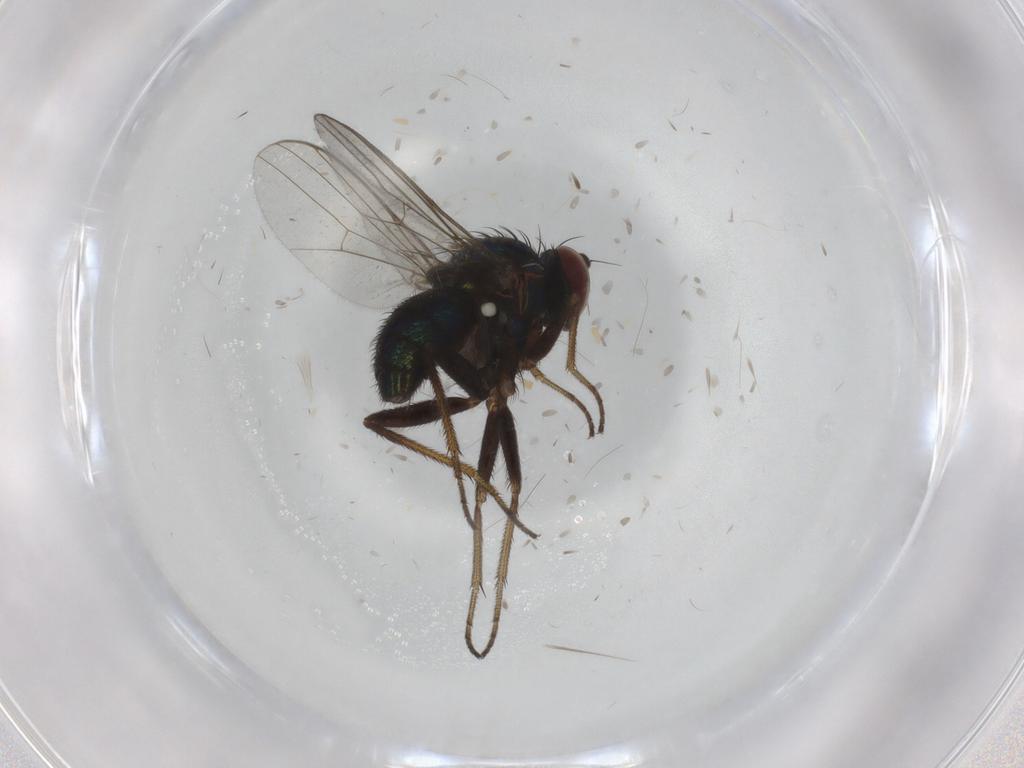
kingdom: Animalia
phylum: Arthropoda
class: Insecta
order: Diptera
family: Dolichopodidae
